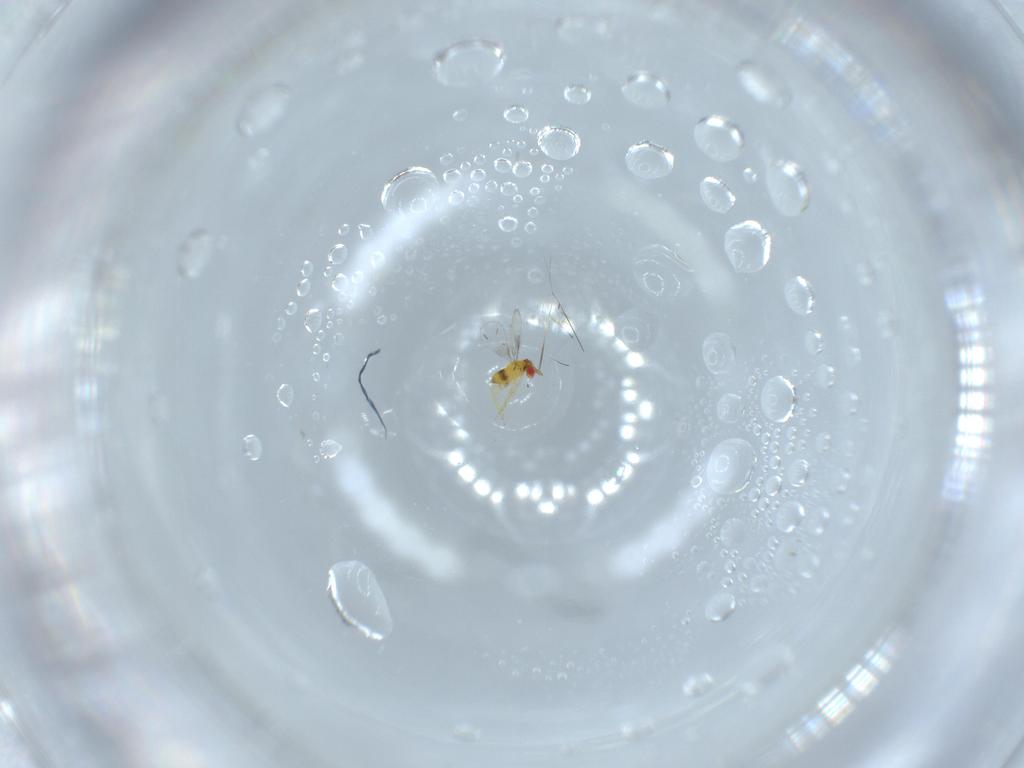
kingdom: Animalia
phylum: Arthropoda
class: Insecta
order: Hymenoptera
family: Trichogrammatidae
